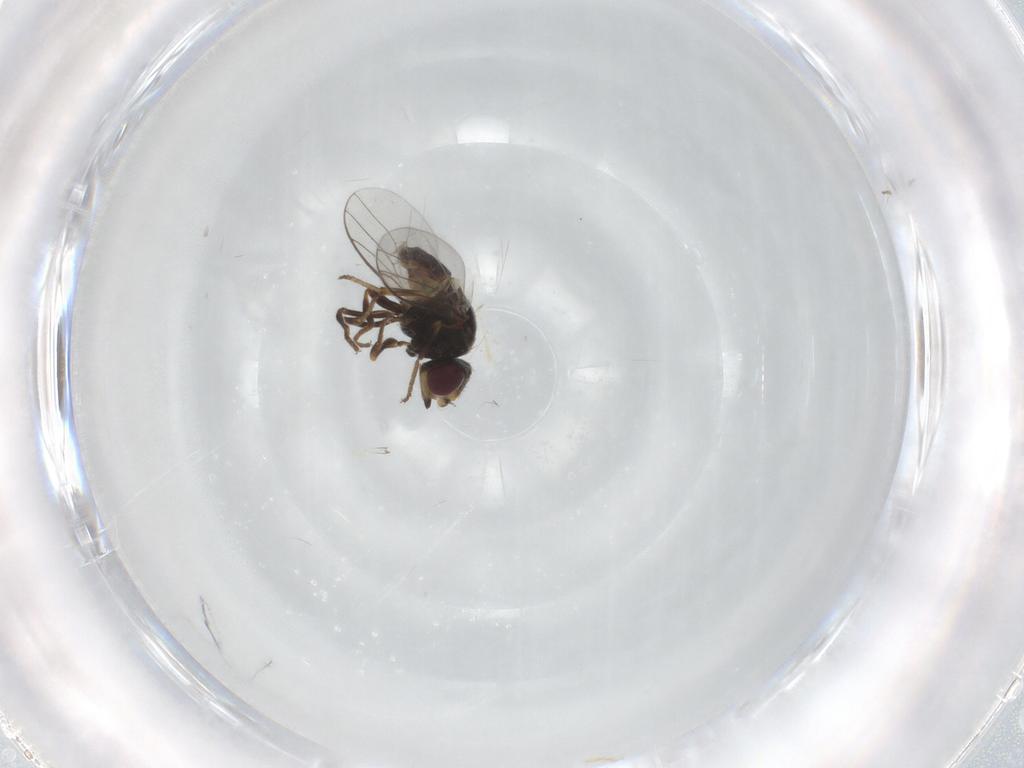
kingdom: Animalia
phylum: Arthropoda
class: Insecta
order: Diptera
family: Chloropidae
